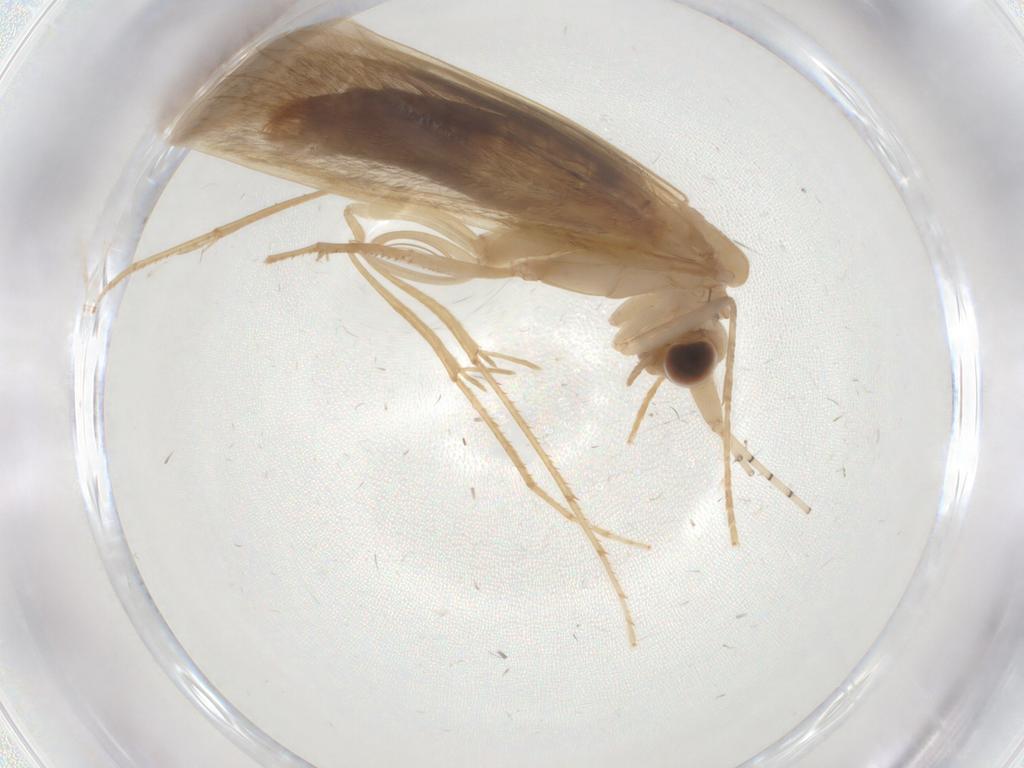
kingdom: Animalia
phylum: Arthropoda
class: Insecta
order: Trichoptera
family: Leptoceridae
